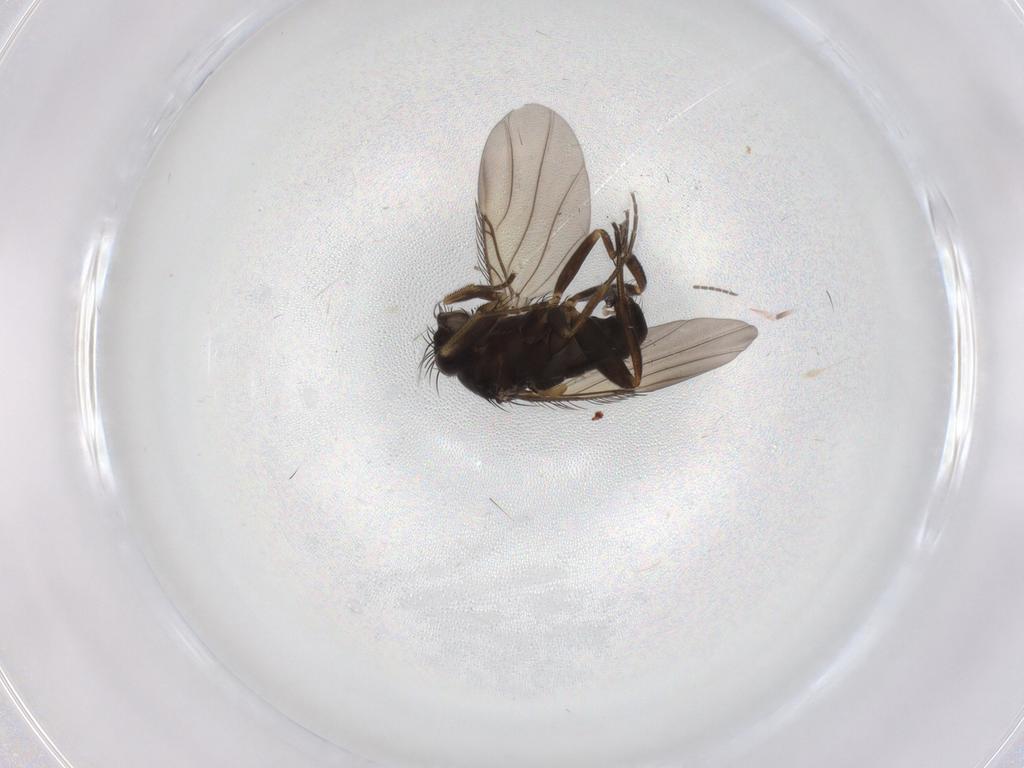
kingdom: Animalia
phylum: Arthropoda
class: Insecta
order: Diptera
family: Phoridae
